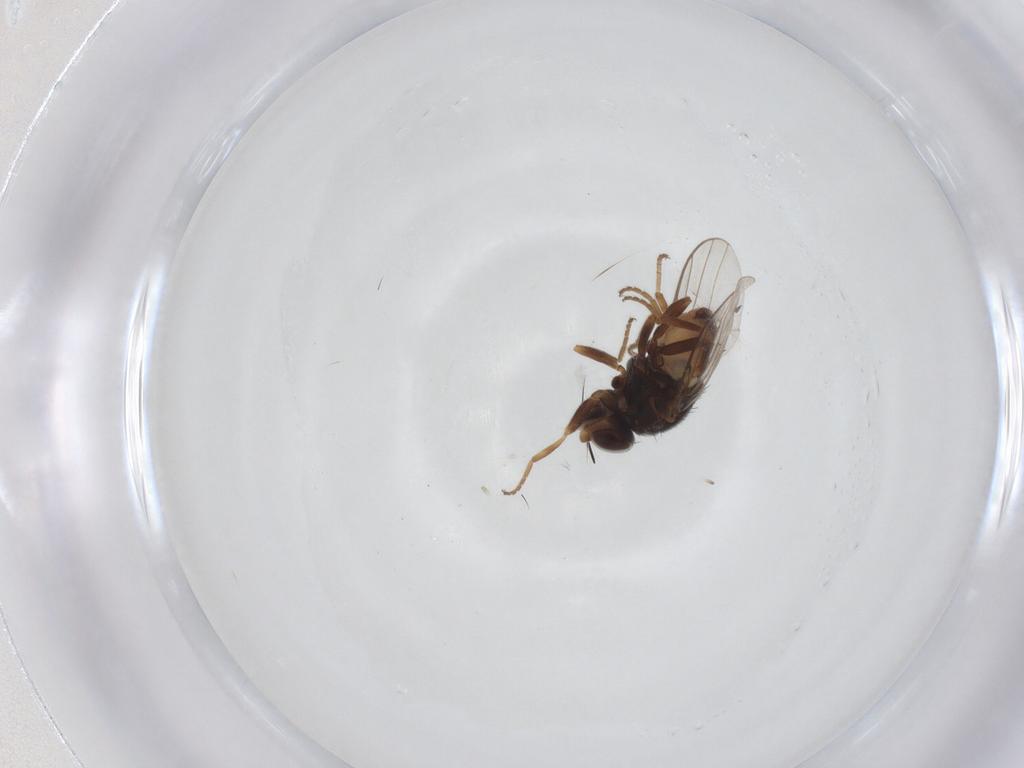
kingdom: Animalia
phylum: Arthropoda
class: Insecta
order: Diptera
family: Chloropidae
